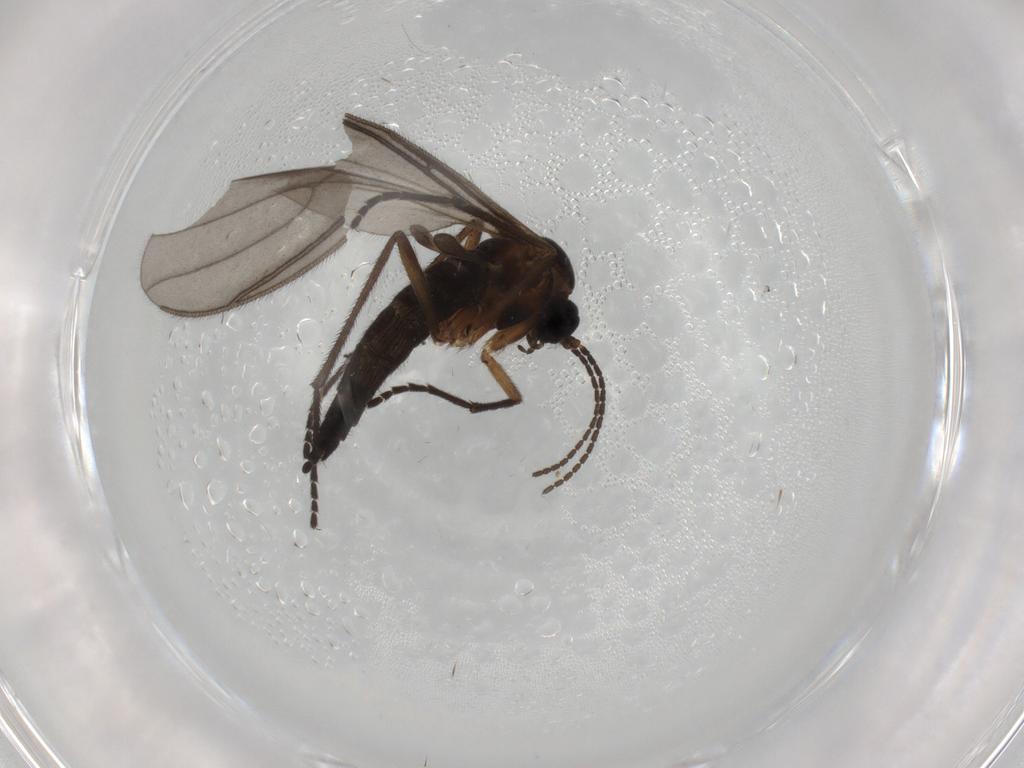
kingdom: Animalia
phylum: Arthropoda
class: Insecta
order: Diptera
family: Sciaridae
